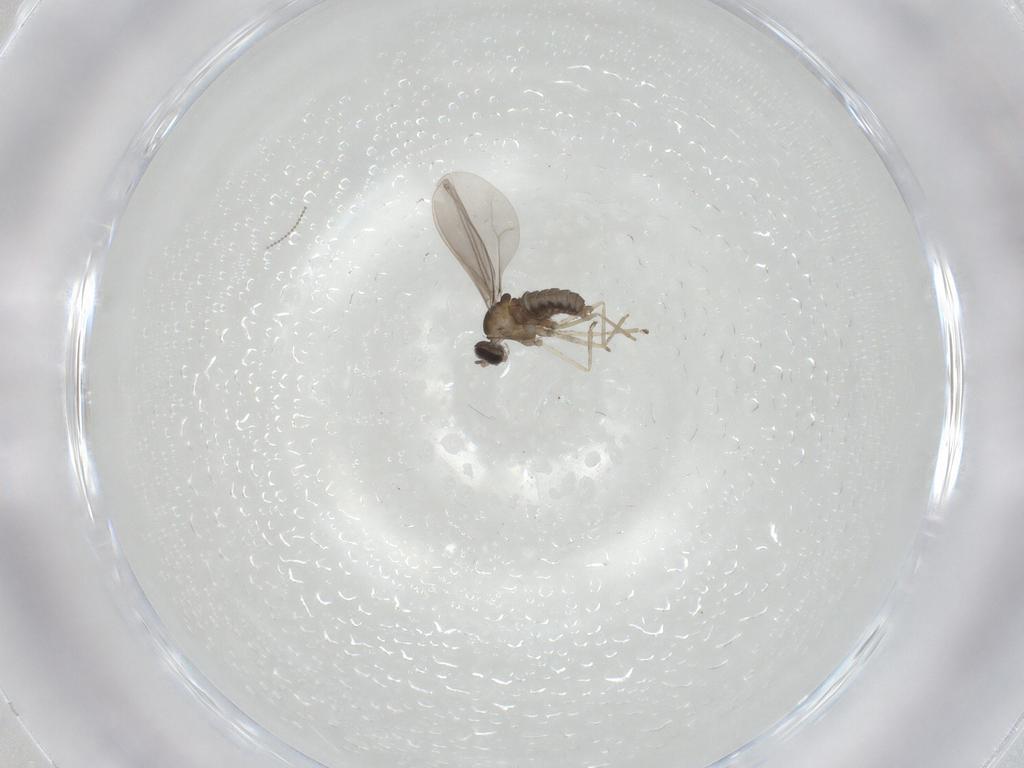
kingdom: Animalia
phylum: Arthropoda
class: Insecta
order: Diptera
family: Cecidomyiidae
